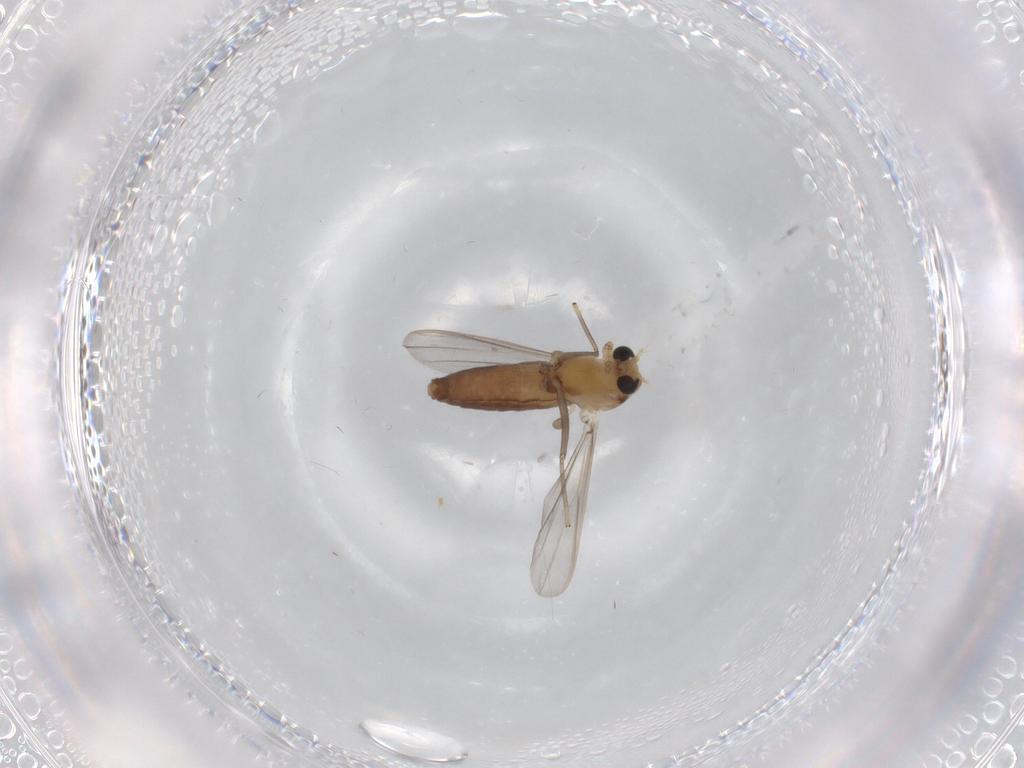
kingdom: Animalia
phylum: Arthropoda
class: Insecta
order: Diptera
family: Chironomidae
